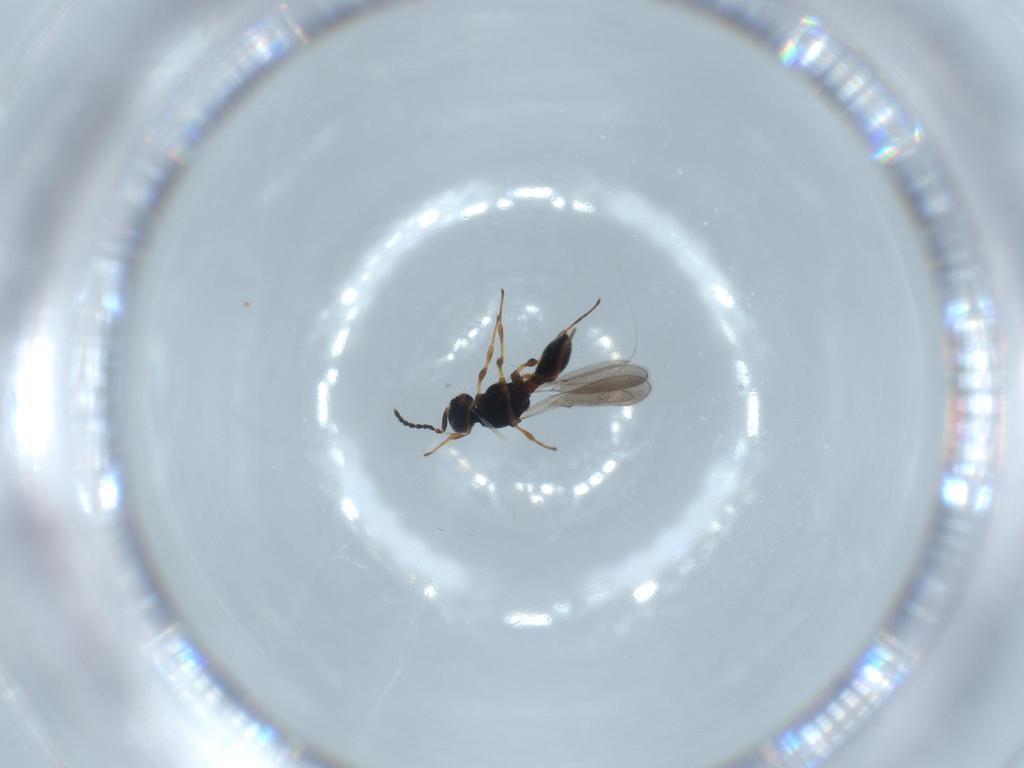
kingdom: Animalia
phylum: Arthropoda
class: Insecta
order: Hymenoptera
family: Platygastridae
